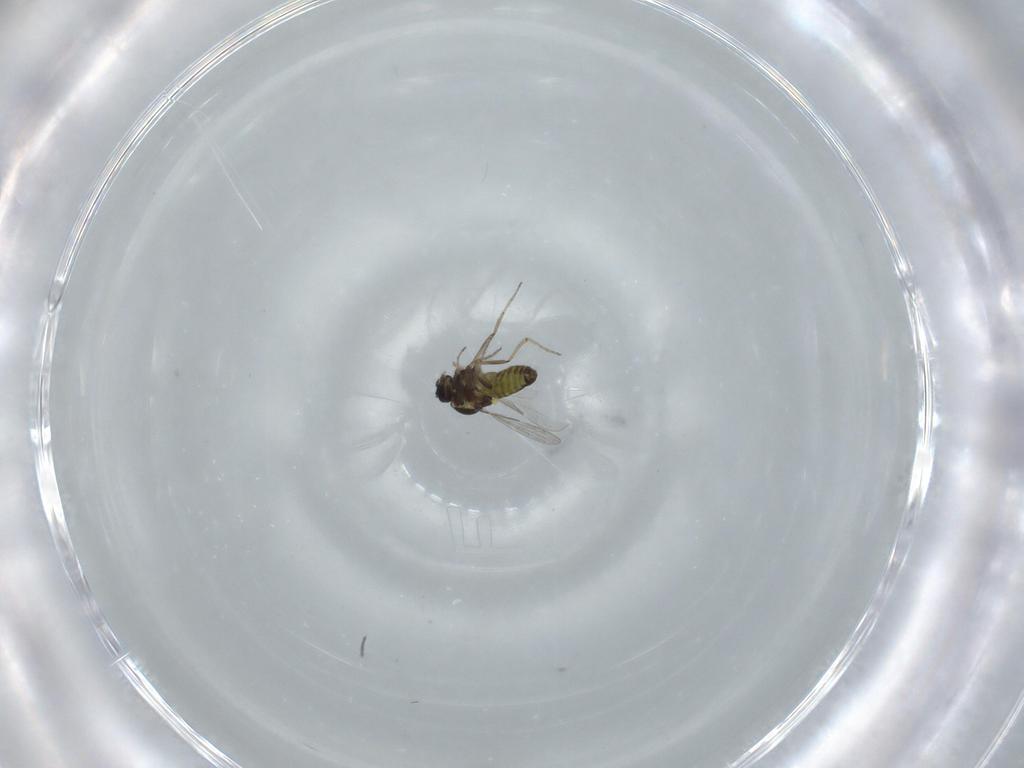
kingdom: Animalia
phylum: Arthropoda
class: Insecta
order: Diptera
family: Ceratopogonidae
